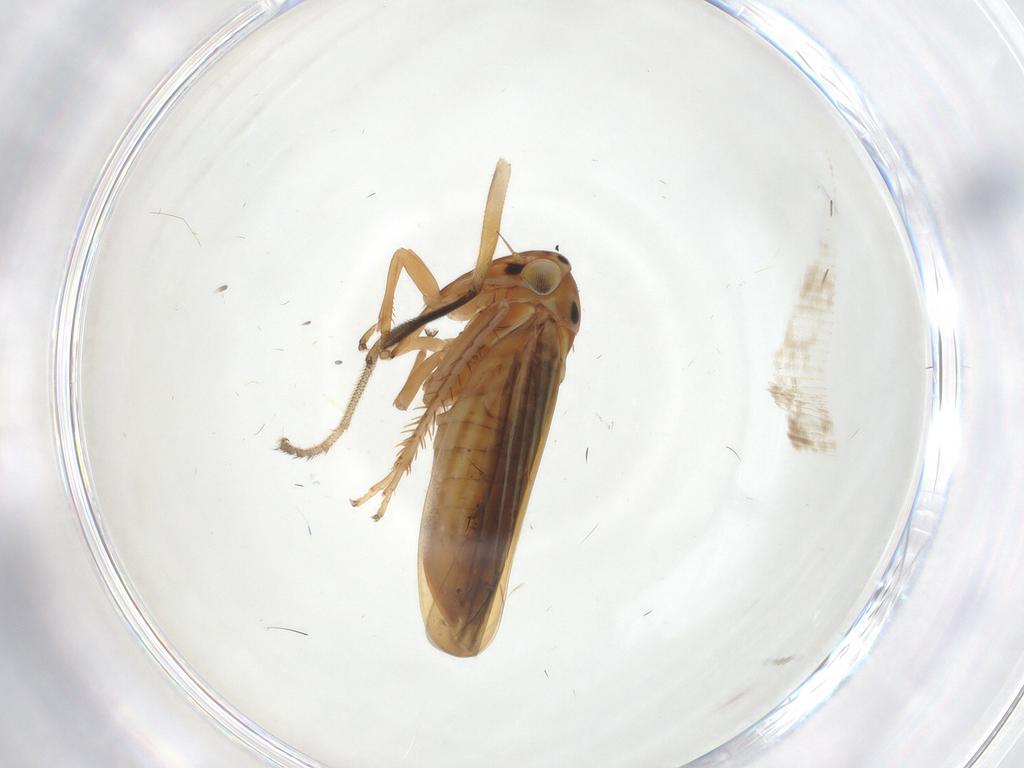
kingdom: Animalia
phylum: Arthropoda
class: Insecta
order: Hemiptera
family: Cicadellidae
